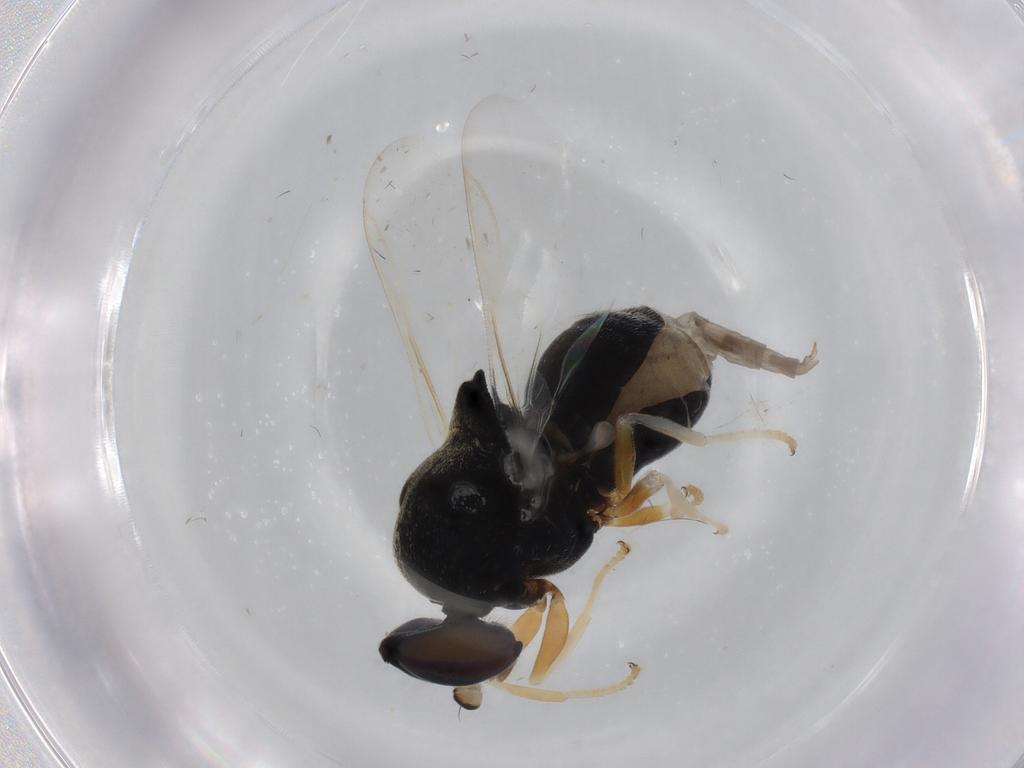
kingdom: Animalia
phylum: Arthropoda
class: Insecta
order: Diptera
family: Stratiomyidae
